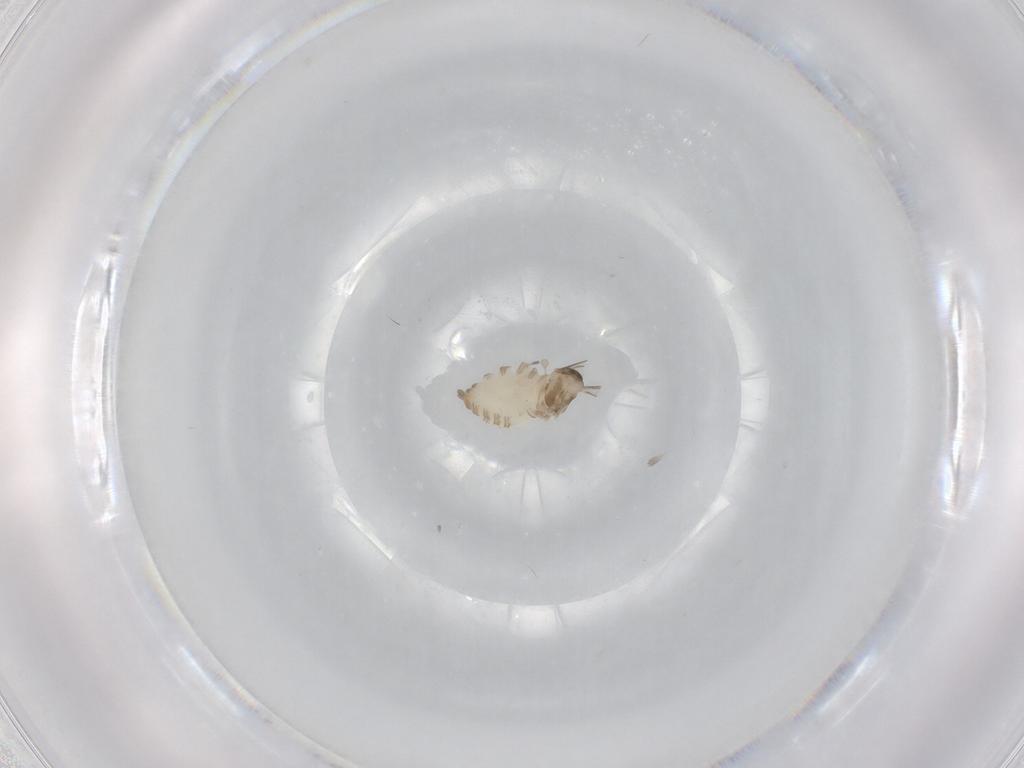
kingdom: Animalia
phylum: Arthropoda
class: Insecta
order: Diptera
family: Cecidomyiidae
